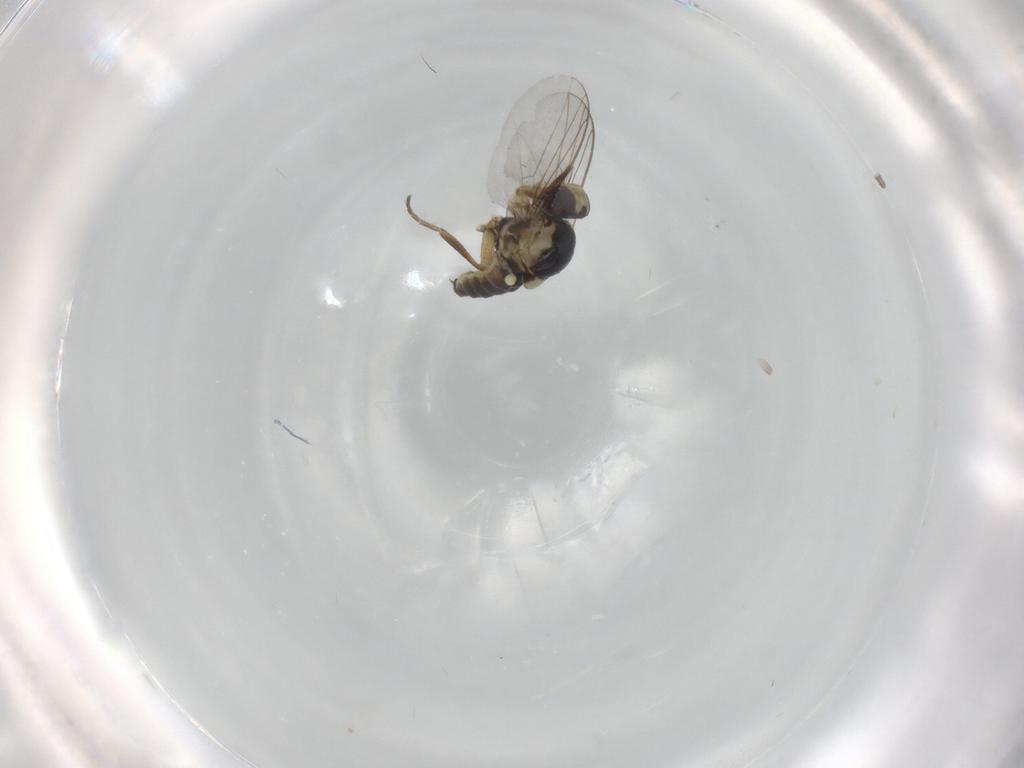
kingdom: Animalia
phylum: Arthropoda
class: Insecta
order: Diptera
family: Agromyzidae
